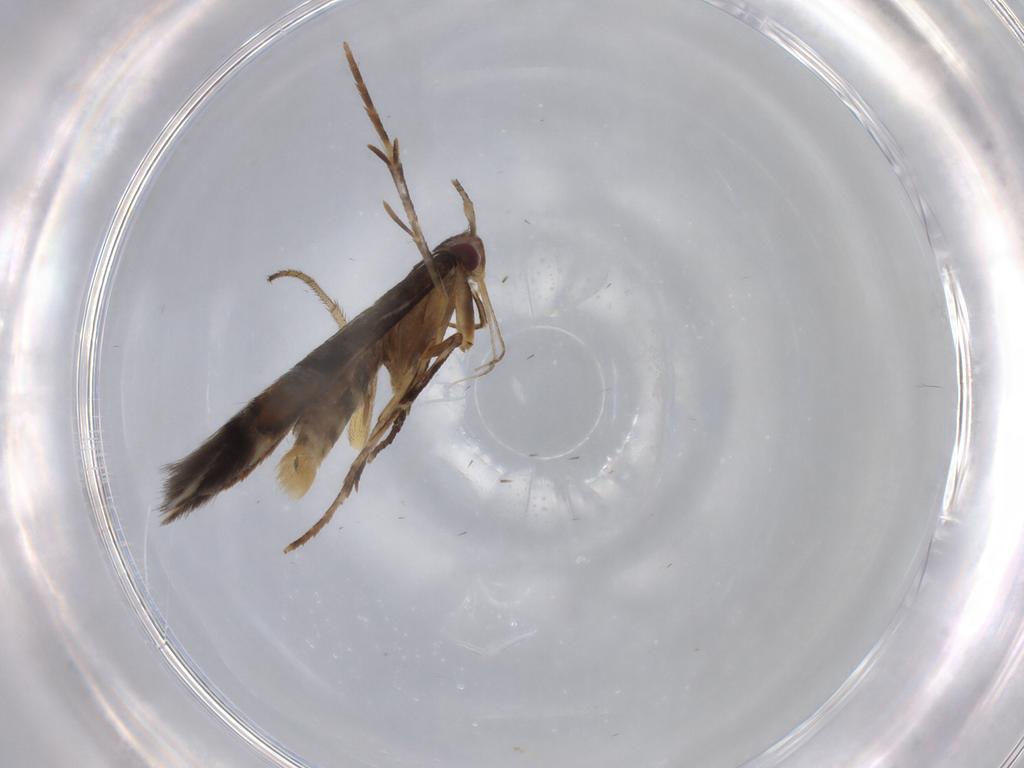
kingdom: Animalia
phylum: Arthropoda
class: Insecta
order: Lepidoptera
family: Cosmopterigidae
